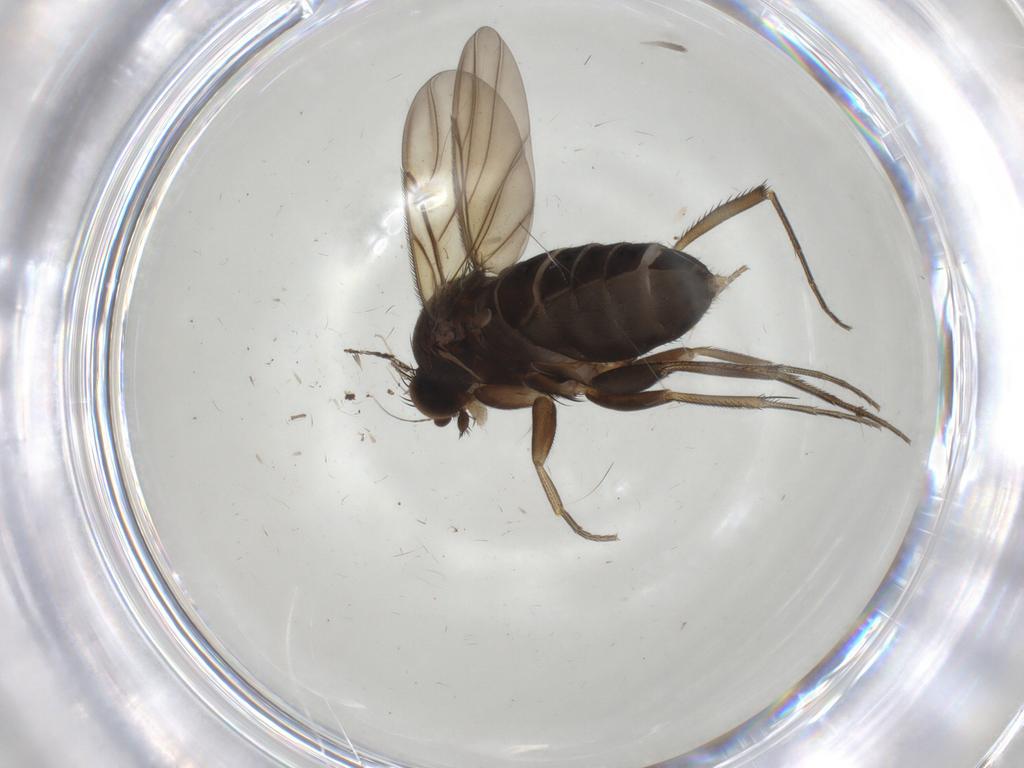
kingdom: Animalia
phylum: Arthropoda
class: Insecta
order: Diptera
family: Phoridae
